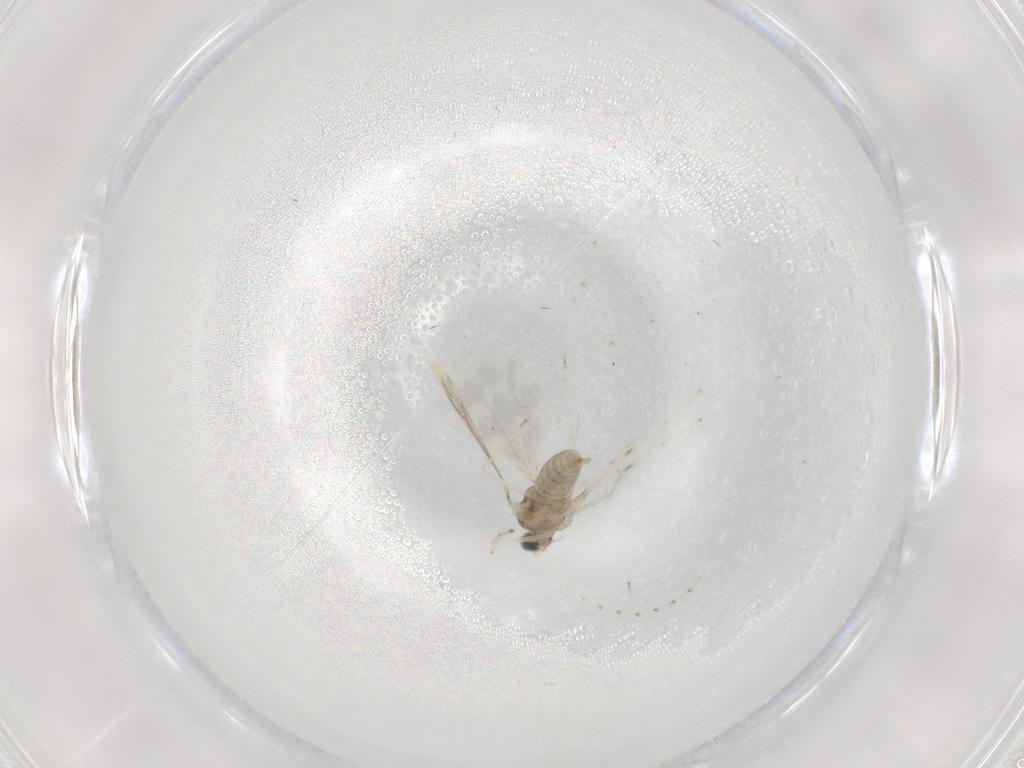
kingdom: Animalia
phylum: Arthropoda
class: Insecta
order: Diptera
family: Cecidomyiidae
